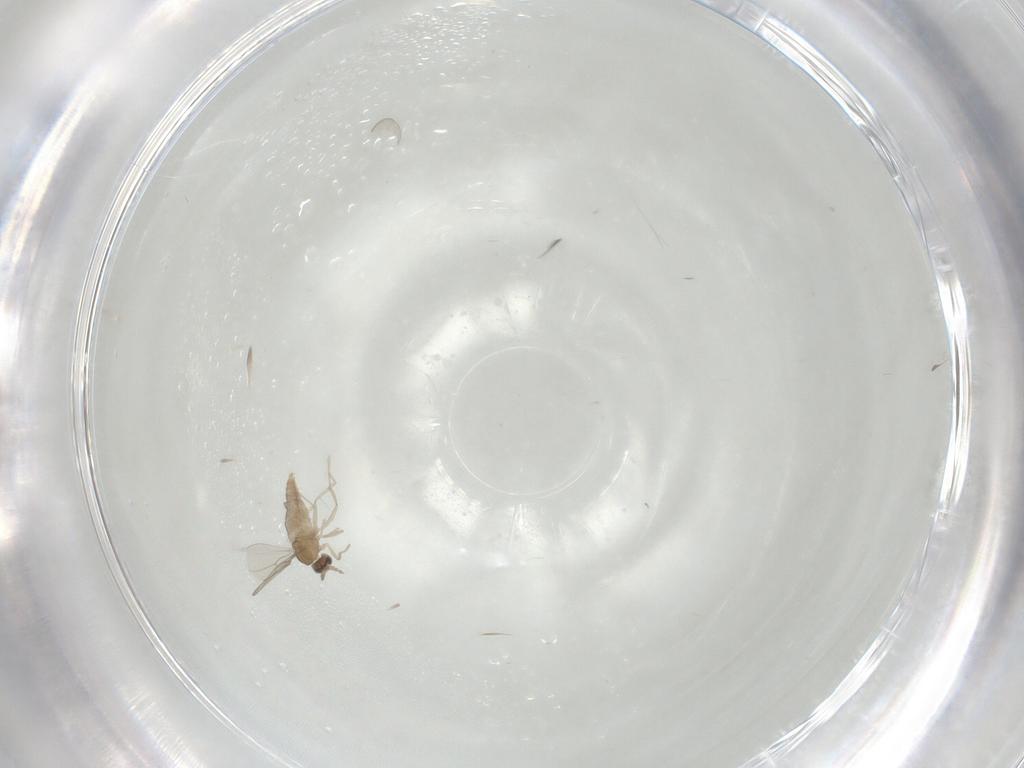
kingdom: Animalia
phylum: Arthropoda
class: Insecta
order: Diptera
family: Cecidomyiidae
